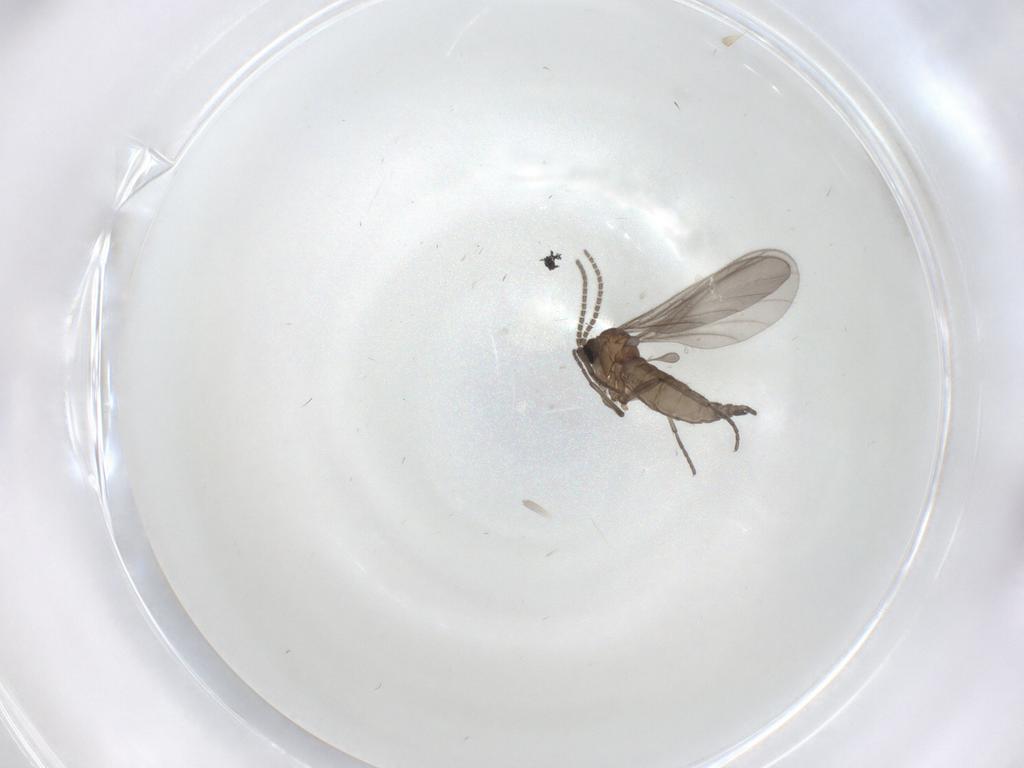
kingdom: Animalia
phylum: Arthropoda
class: Insecta
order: Diptera
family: Sciaridae
